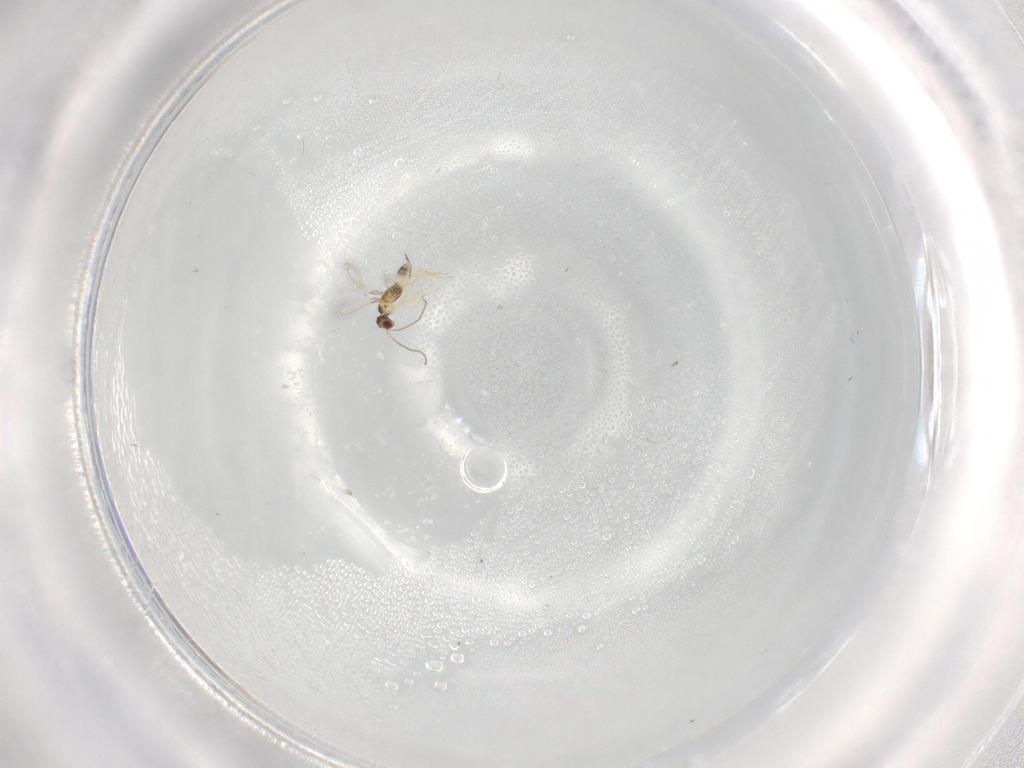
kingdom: Animalia
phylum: Arthropoda
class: Insecta
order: Hymenoptera
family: Mymaridae
